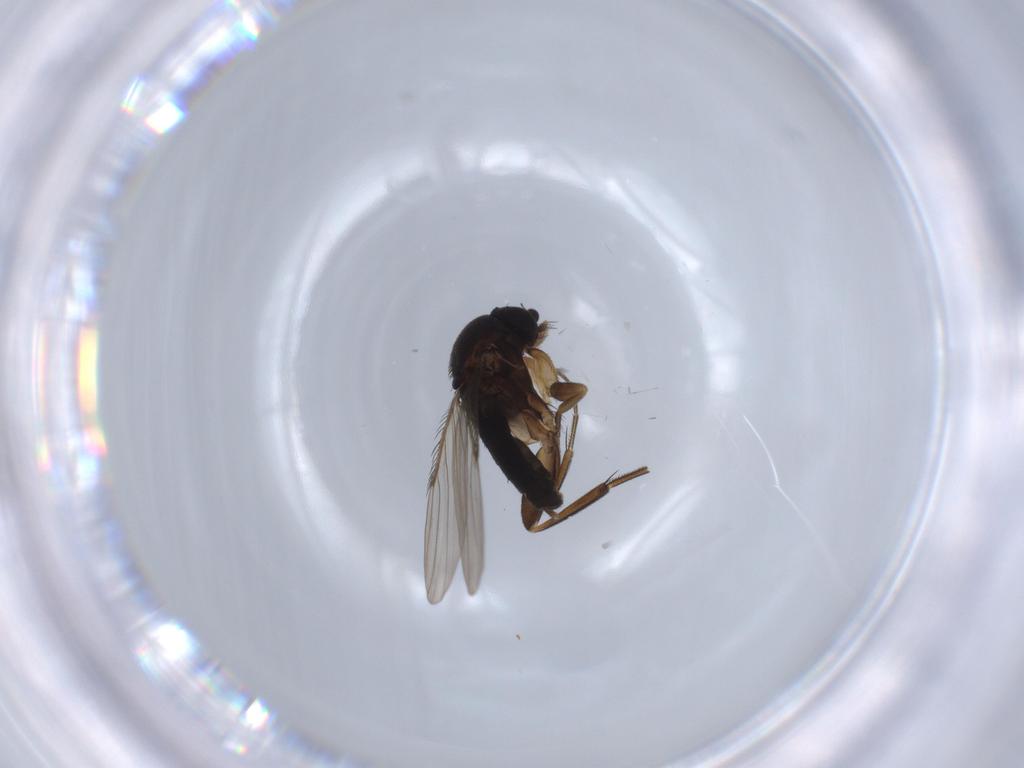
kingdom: Animalia
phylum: Arthropoda
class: Insecta
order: Diptera
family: Phoridae
